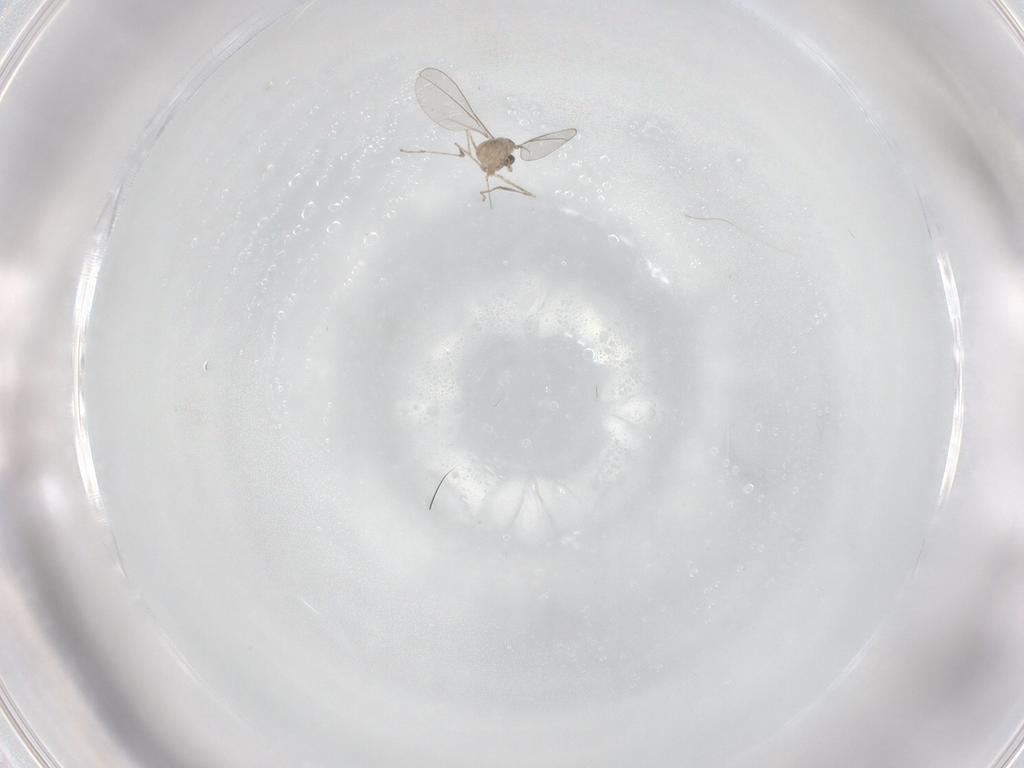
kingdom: Animalia
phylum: Arthropoda
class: Insecta
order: Diptera
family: Cecidomyiidae
